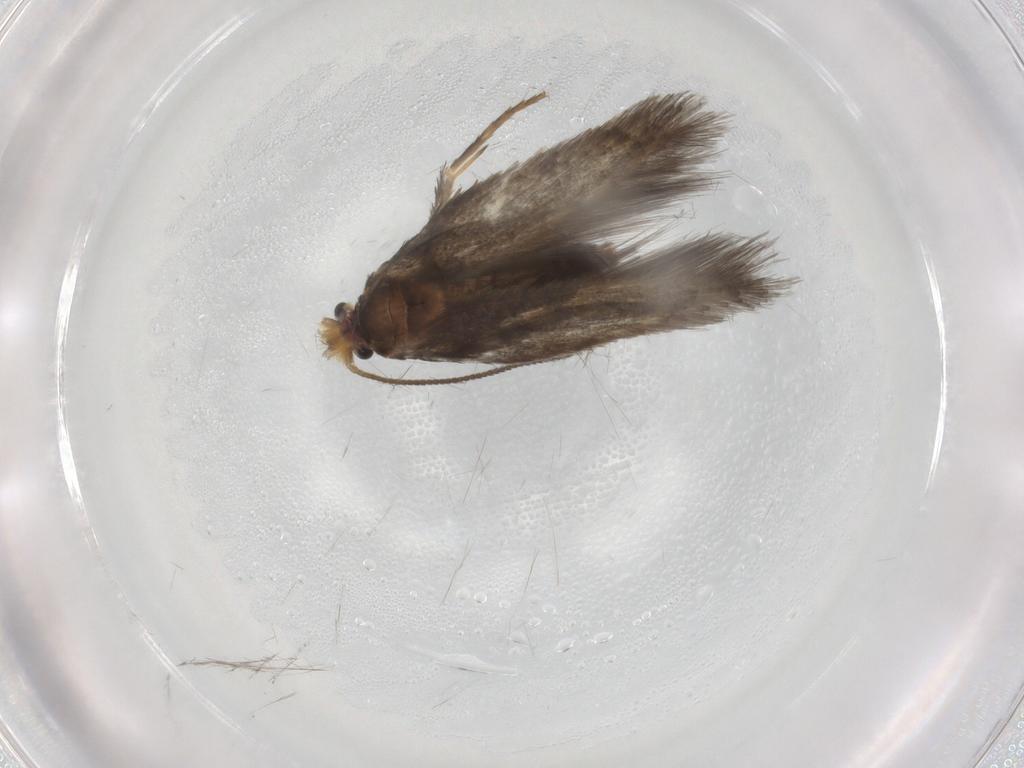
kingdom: Animalia
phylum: Arthropoda
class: Insecta
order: Lepidoptera
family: Nepticulidae
